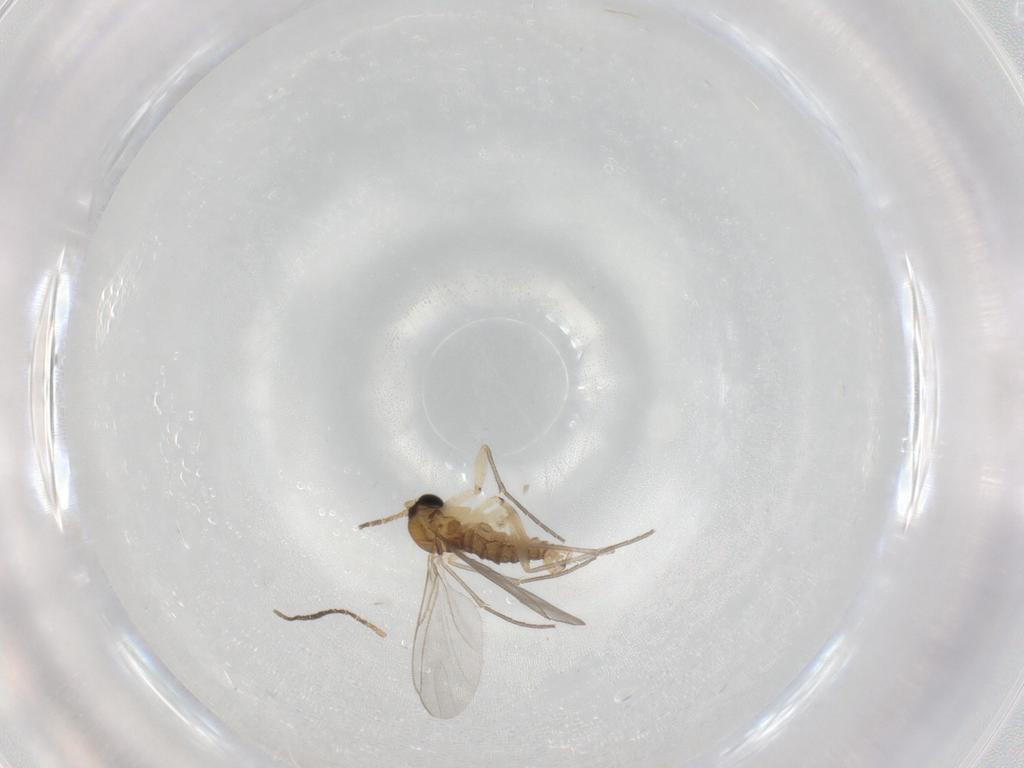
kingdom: Animalia
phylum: Arthropoda
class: Insecta
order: Diptera
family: Sciaridae
